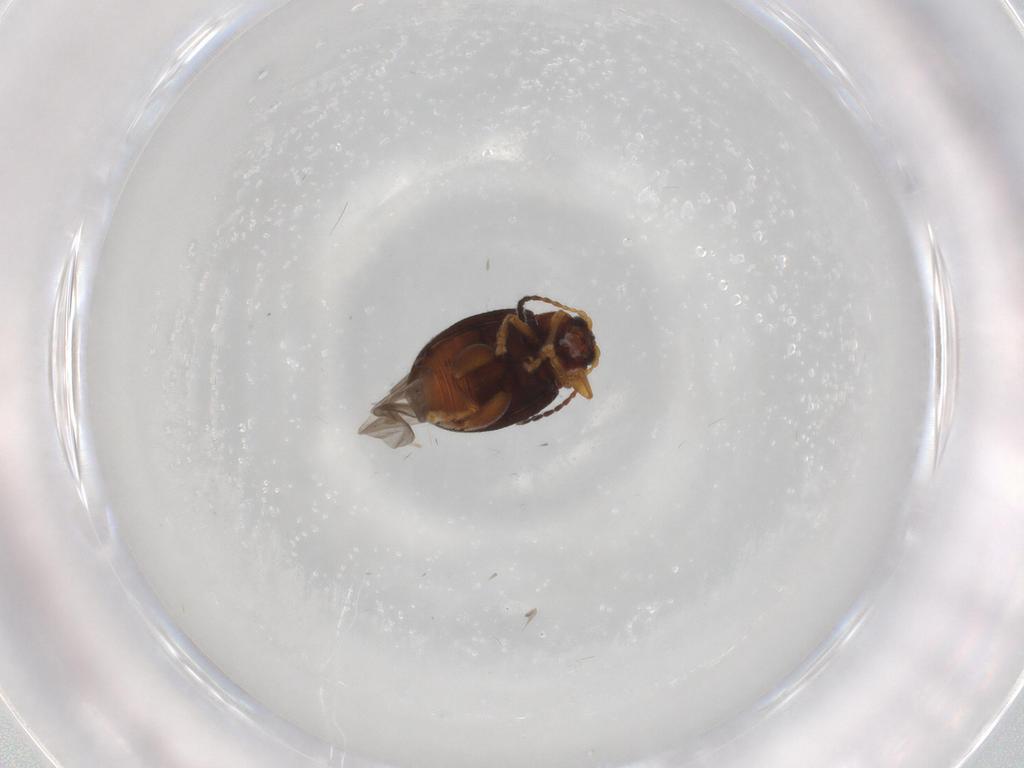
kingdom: Animalia
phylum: Arthropoda
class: Insecta
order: Coleoptera
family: Chrysomelidae
